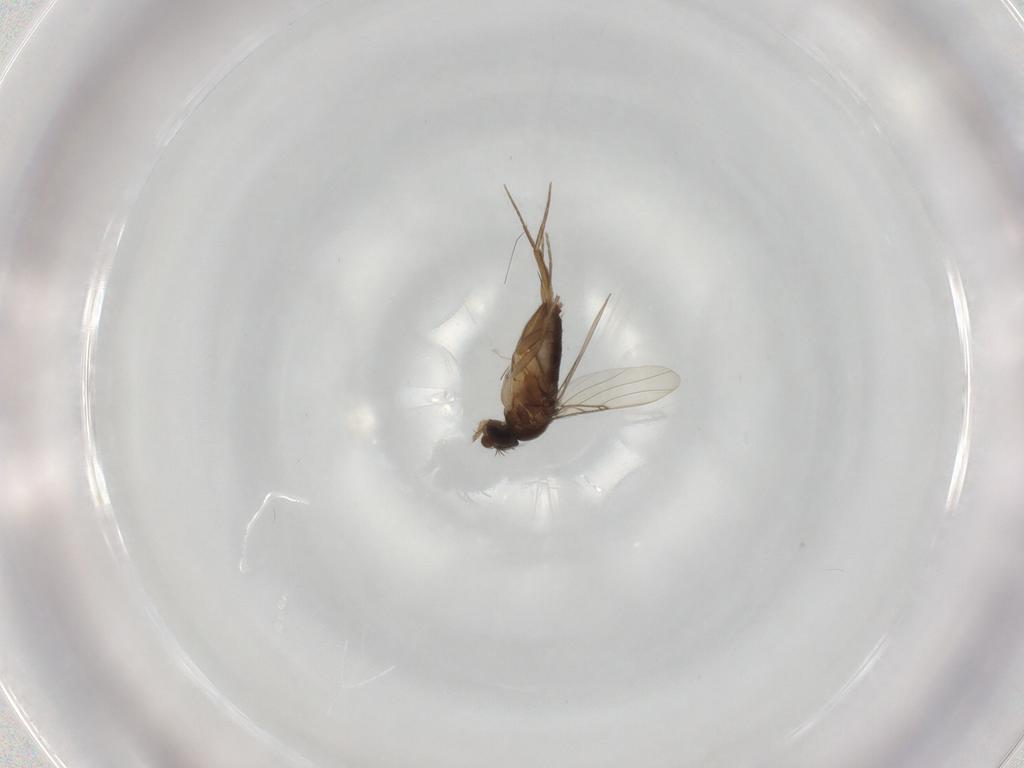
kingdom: Animalia
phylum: Arthropoda
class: Insecta
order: Diptera
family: Phoridae
